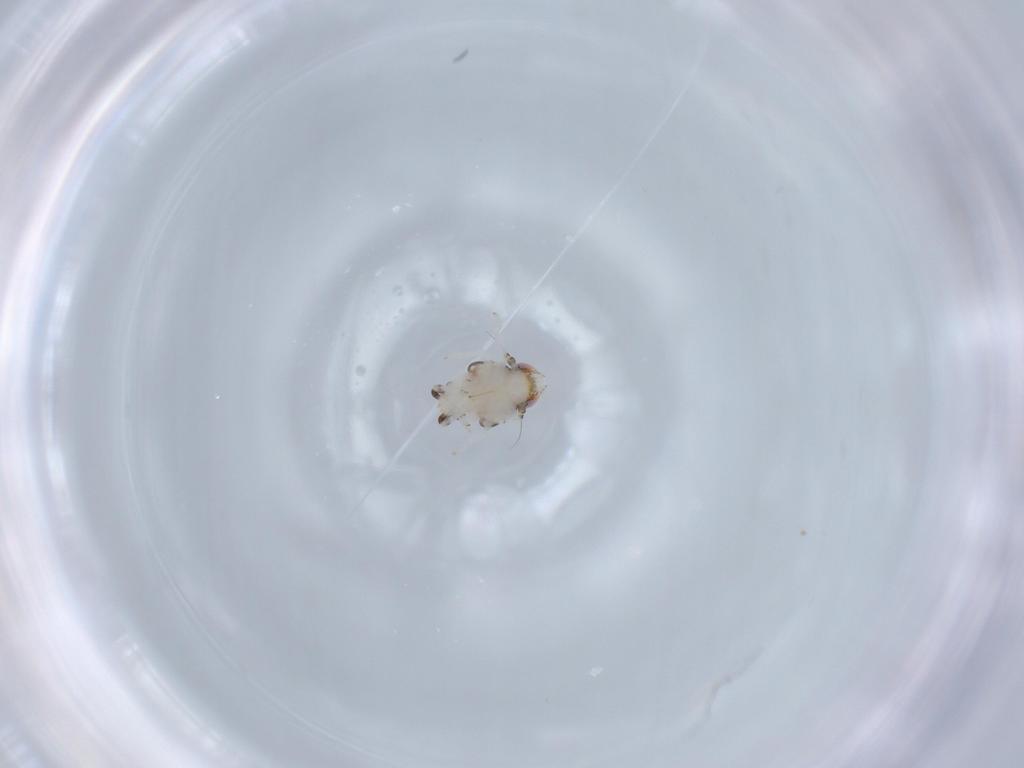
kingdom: Animalia
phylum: Arthropoda
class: Insecta
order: Hemiptera
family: Nogodinidae
